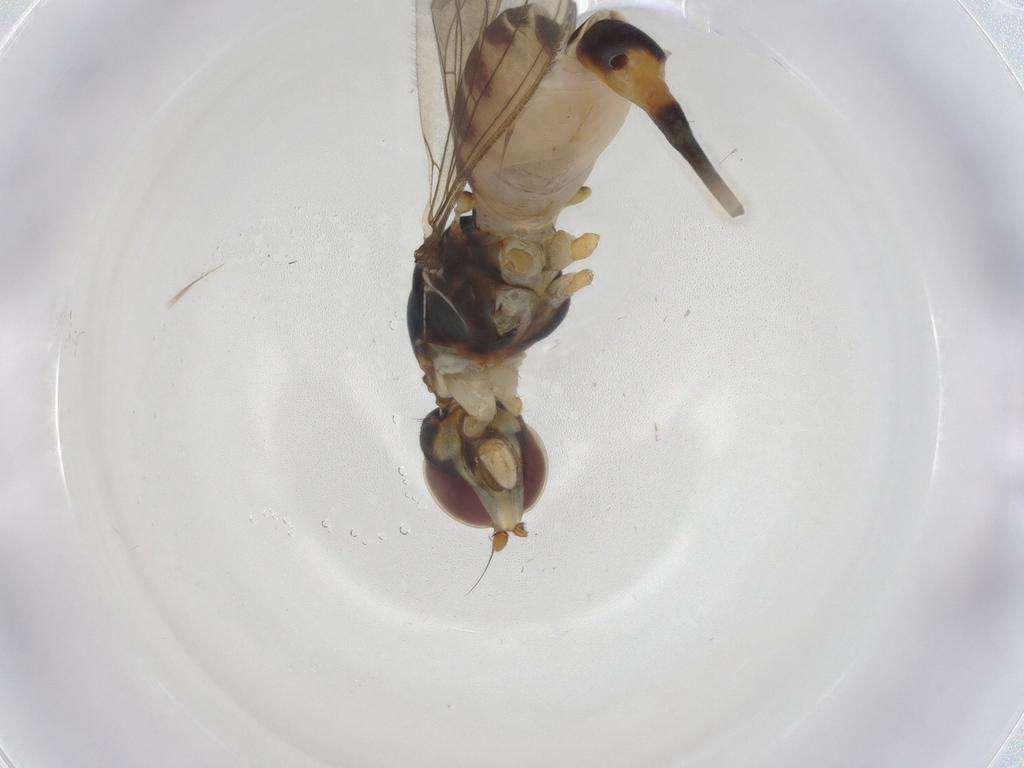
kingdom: Animalia
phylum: Arthropoda
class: Insecta
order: Diptera
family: Micropezidae
